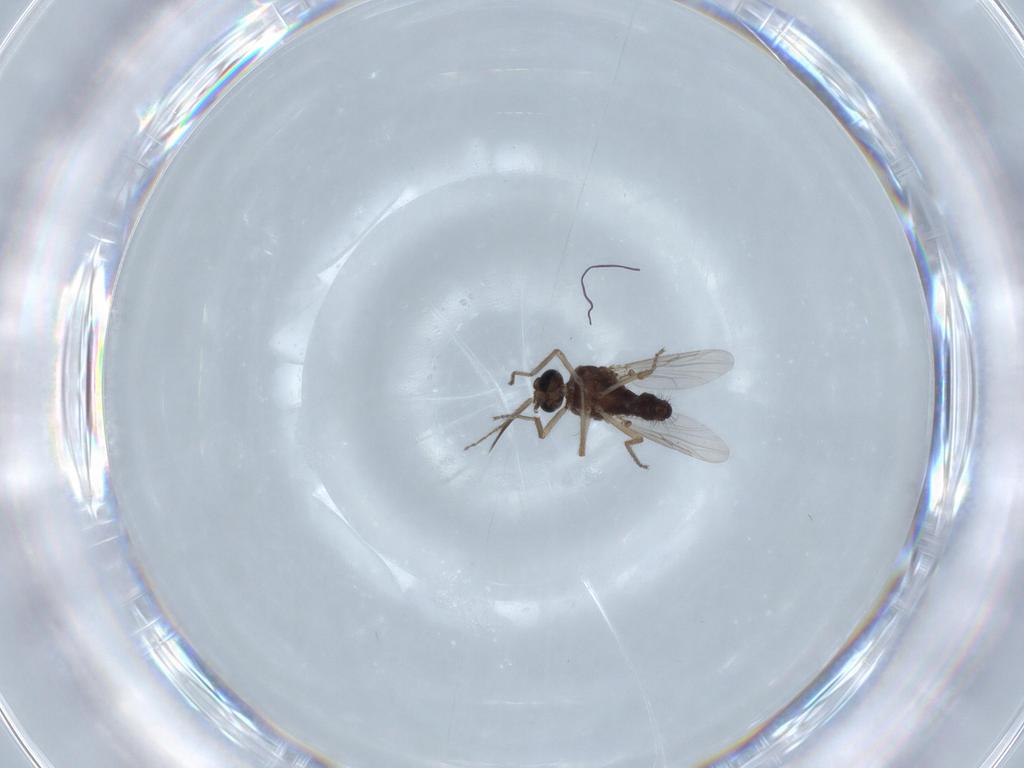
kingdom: Animalia
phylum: Arthropoda
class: Insecta
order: Diptera
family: Ceratopogonidae
